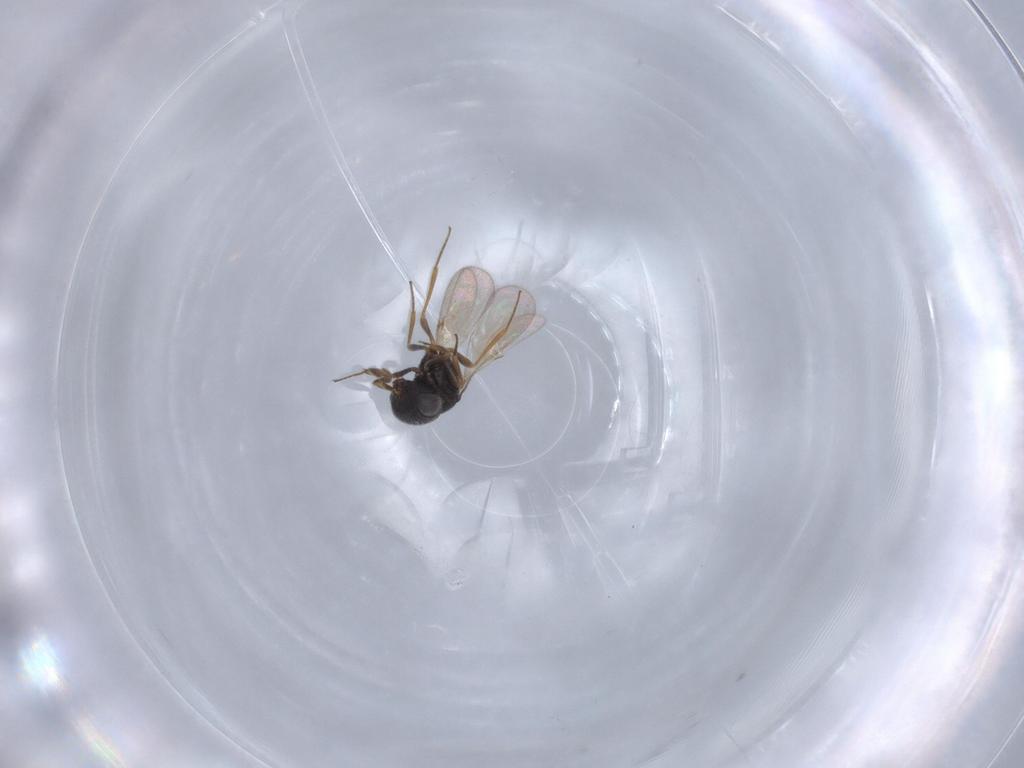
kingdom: Animalia
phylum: Arthropoda
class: Insecta
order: Hymenoptera
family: Scelionidae
